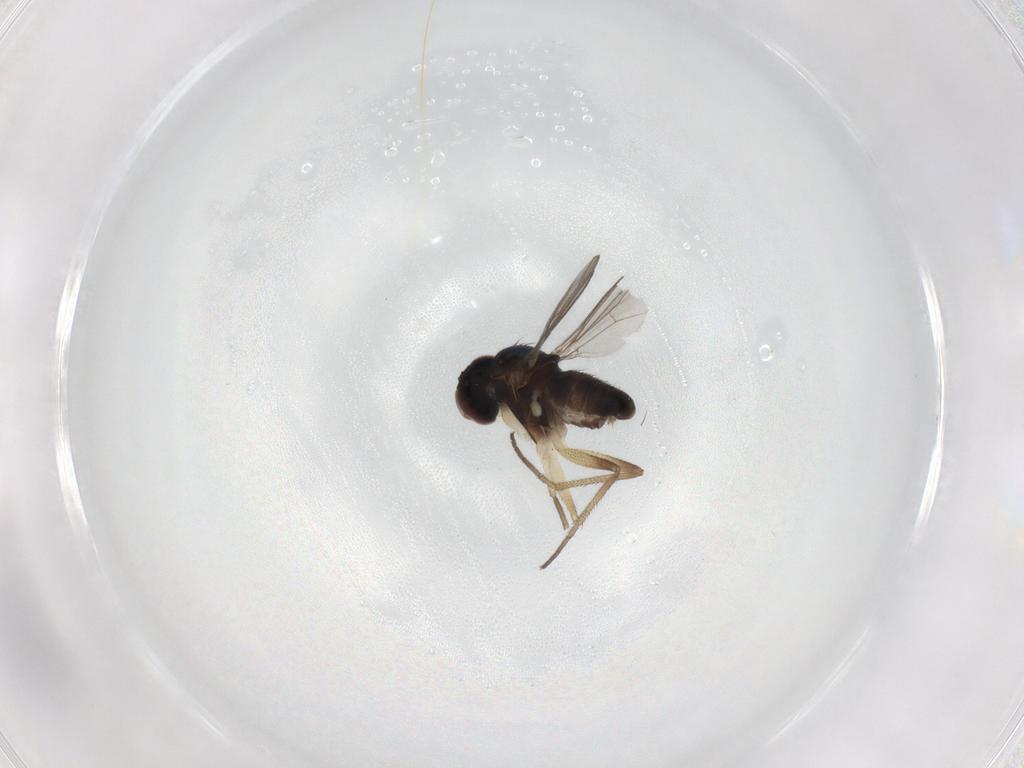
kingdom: Animalia
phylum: Arthropoda
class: Insecta
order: Diptera
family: Dolichopodidae
